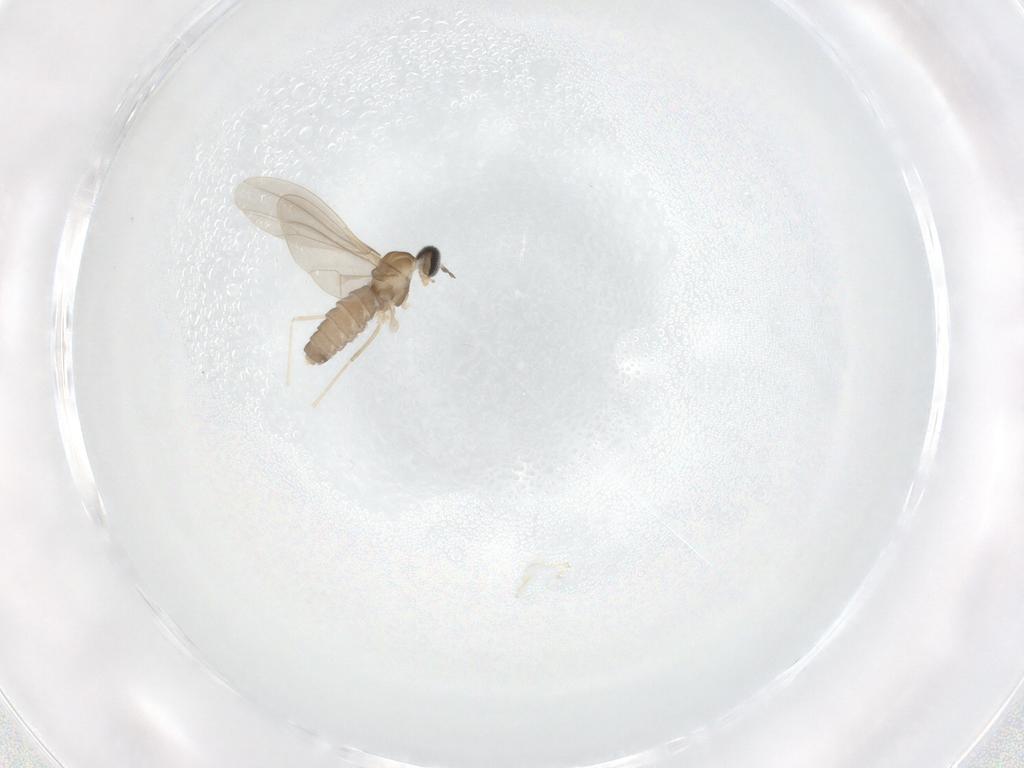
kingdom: Animalia
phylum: Arthropoda
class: Insecta
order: Diptera
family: Cecidomyiidae
